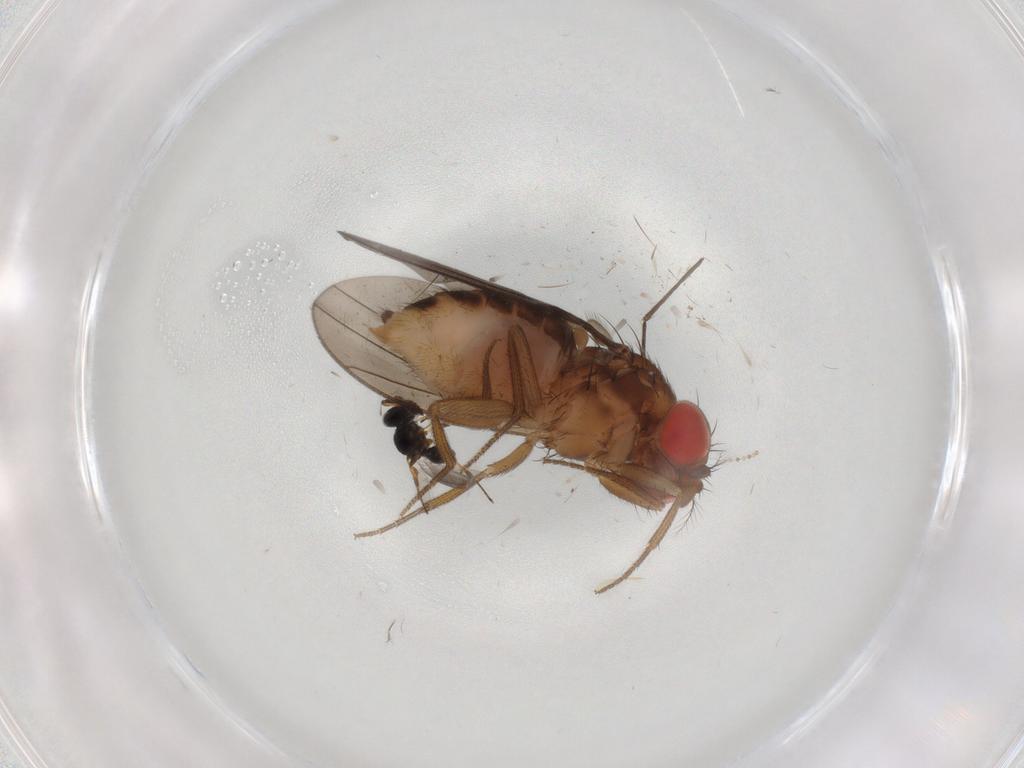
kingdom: Animalia
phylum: Arthropoda
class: Insecta
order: Diptera
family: Drosophilidae
